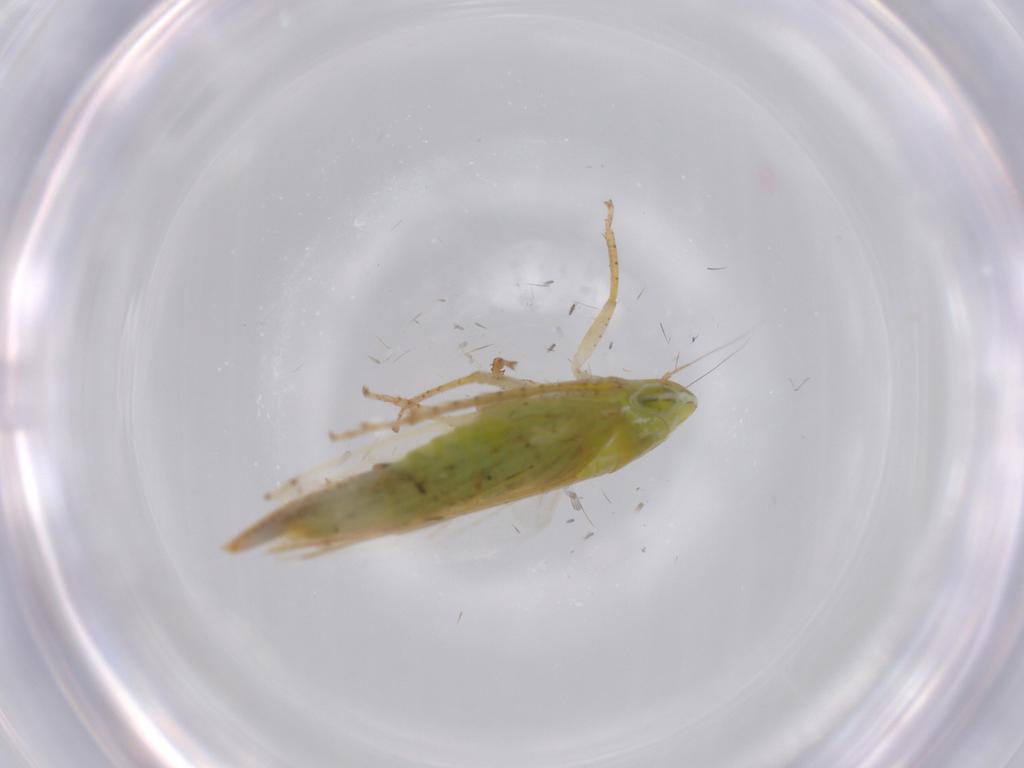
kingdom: Animalia
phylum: Arthropoda
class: Insecta
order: Hemiptera
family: Cicadellidae
